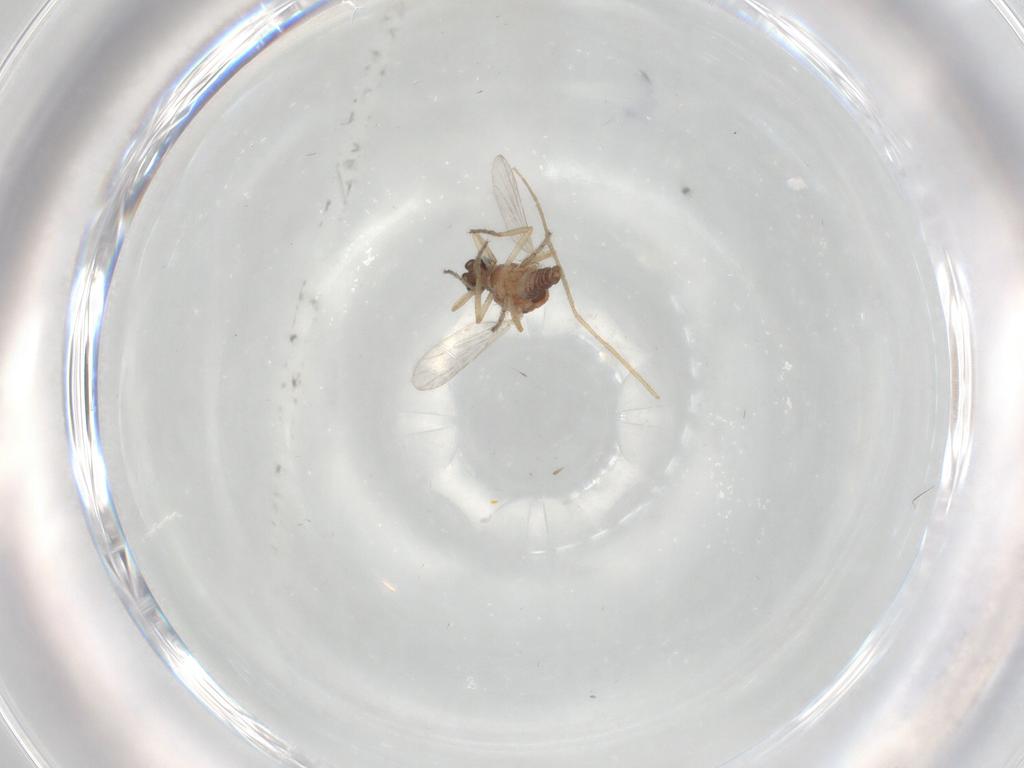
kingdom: Animalia
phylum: Arthropoda
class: Insecta
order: Diptera
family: Ceratopogonidae
